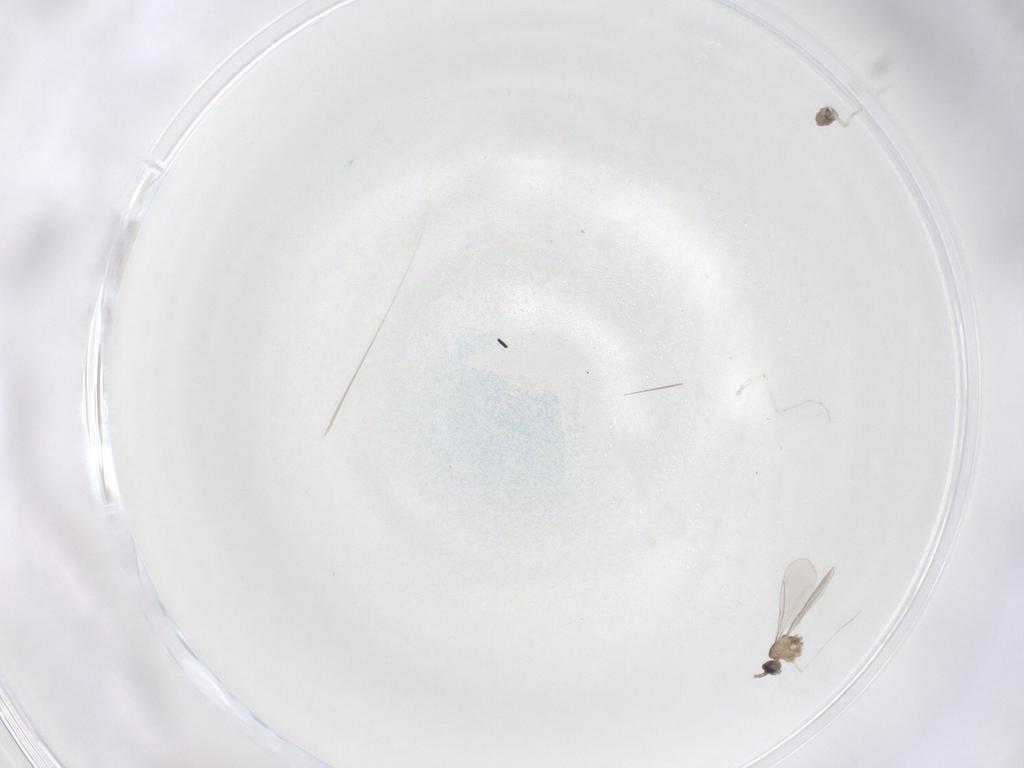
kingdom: Animalia
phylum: Arthropoda
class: Insecta
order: Diptera
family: Cecidomyiidae
